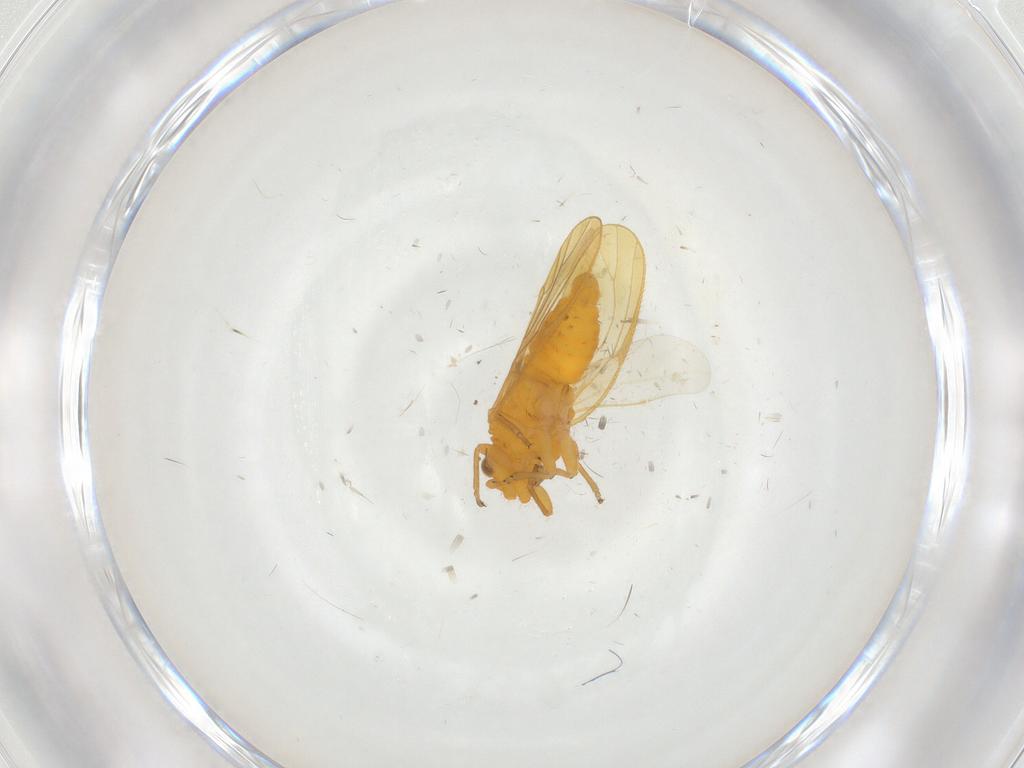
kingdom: Animalia
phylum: Arthropoda
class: Insecta
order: Hemiptera
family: Psyllidae
